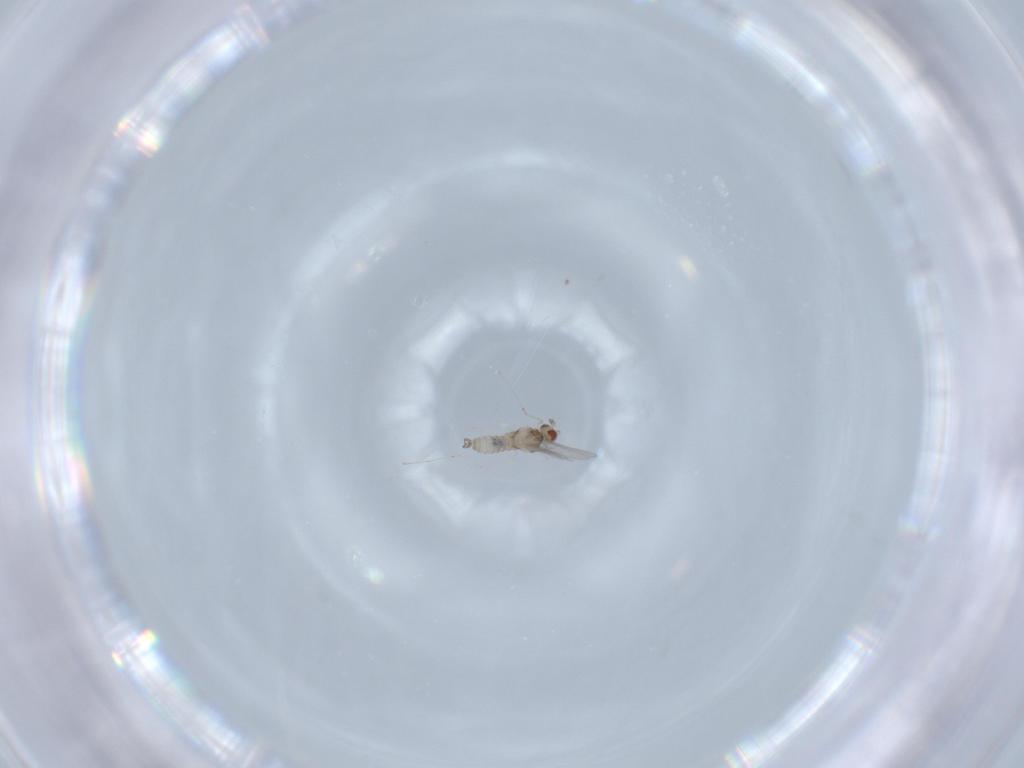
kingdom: Animalia
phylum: Arthropoda
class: Insecta
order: Diptera
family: Cecidomyiidae
